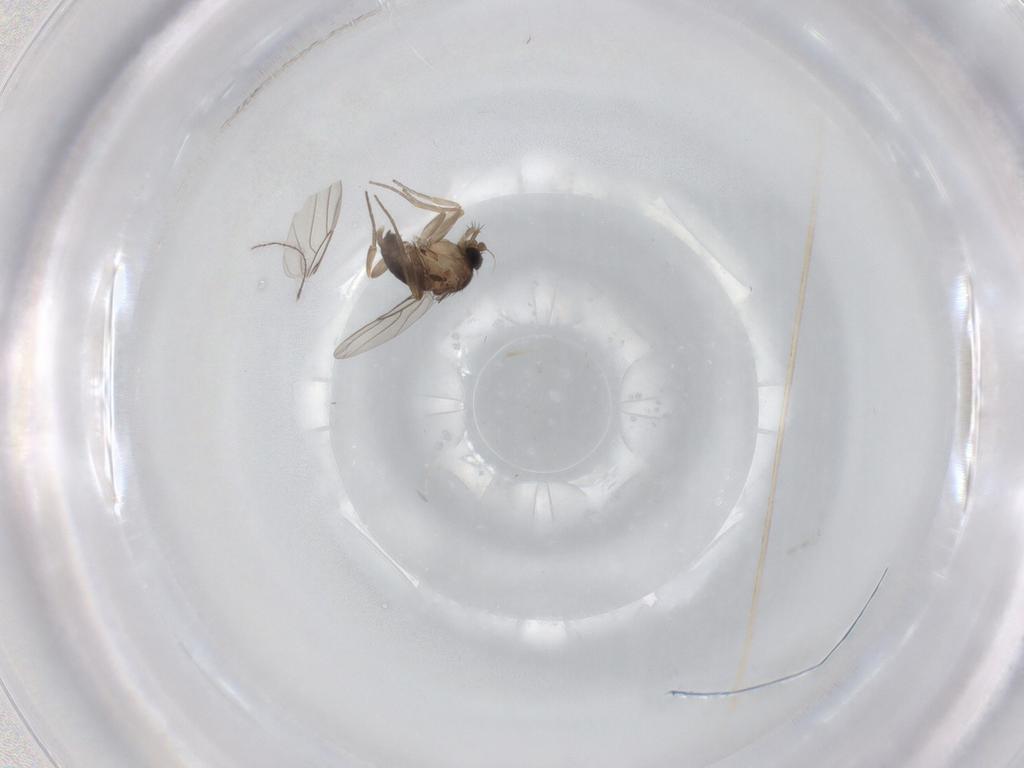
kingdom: Animalia
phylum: Arthropoda
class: Insecta
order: Diptera
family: Phoridae
